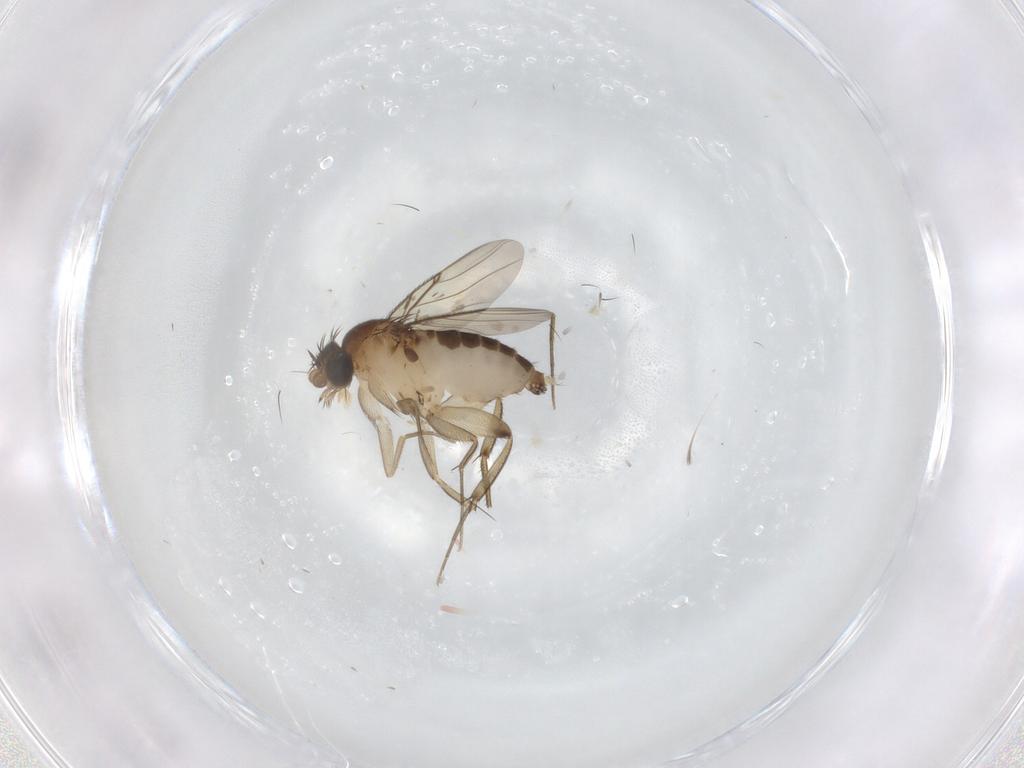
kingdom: Animalia
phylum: Arthropoda
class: Insecta
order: Diptera
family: Phoridae
